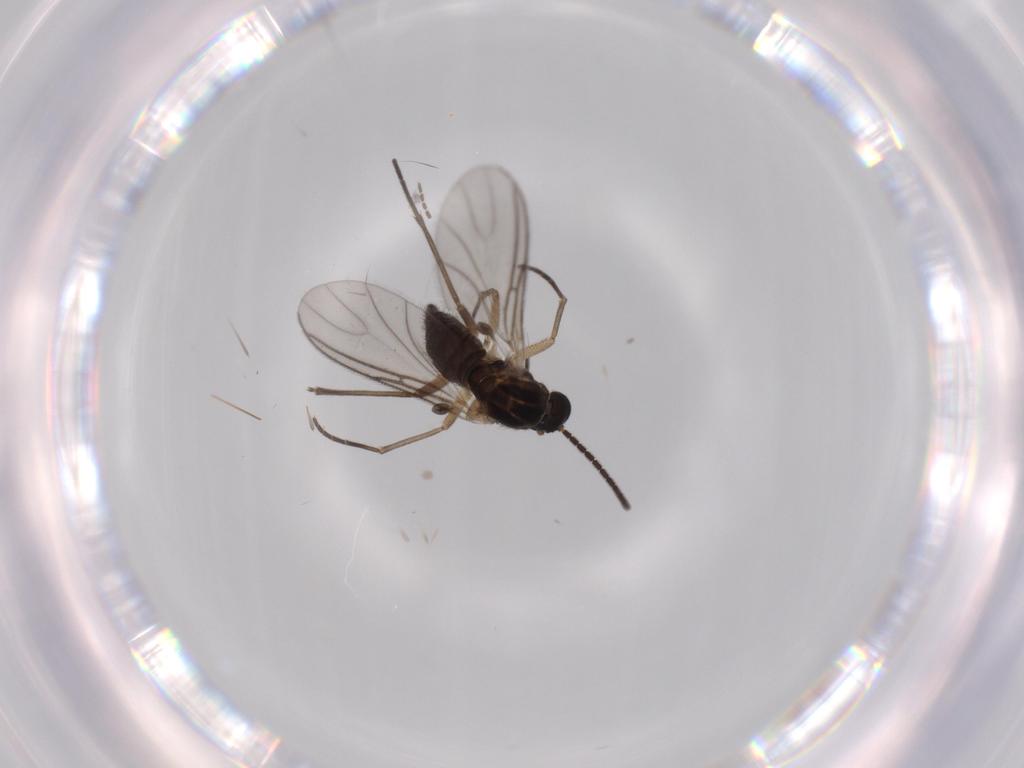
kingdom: Animalia
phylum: Arthropoda
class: Insecta
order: Diptera
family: Sciaridae
